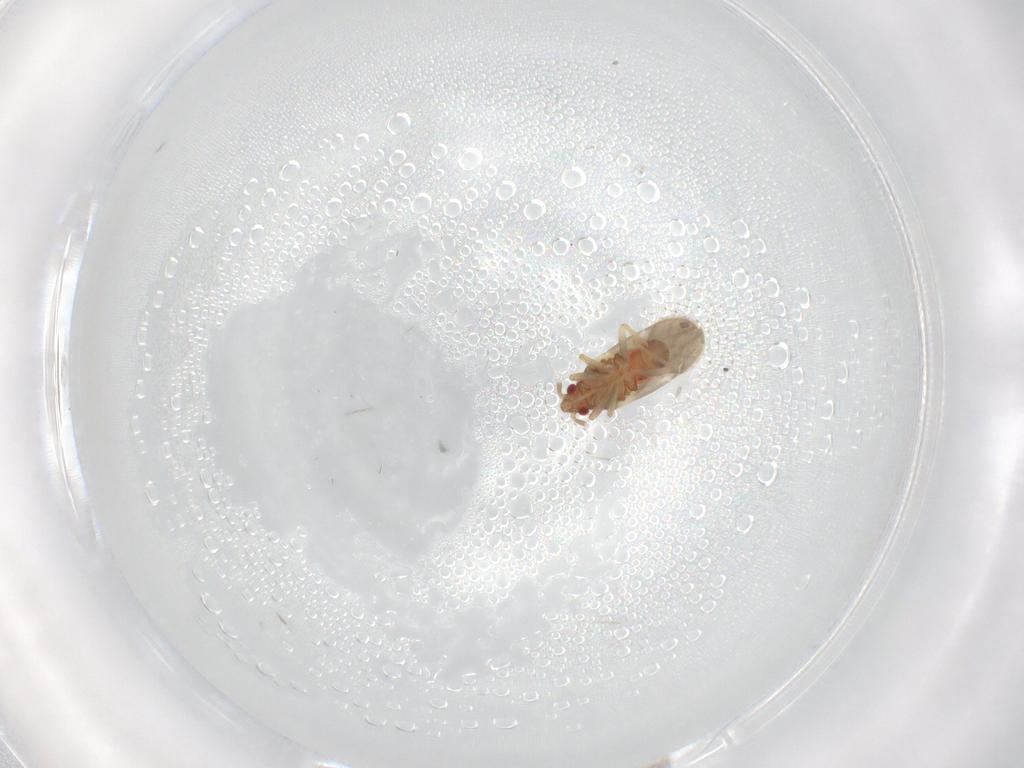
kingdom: Animalia
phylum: Arthropoda
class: Insecta
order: Hemiptera
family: Ceratocombidae
